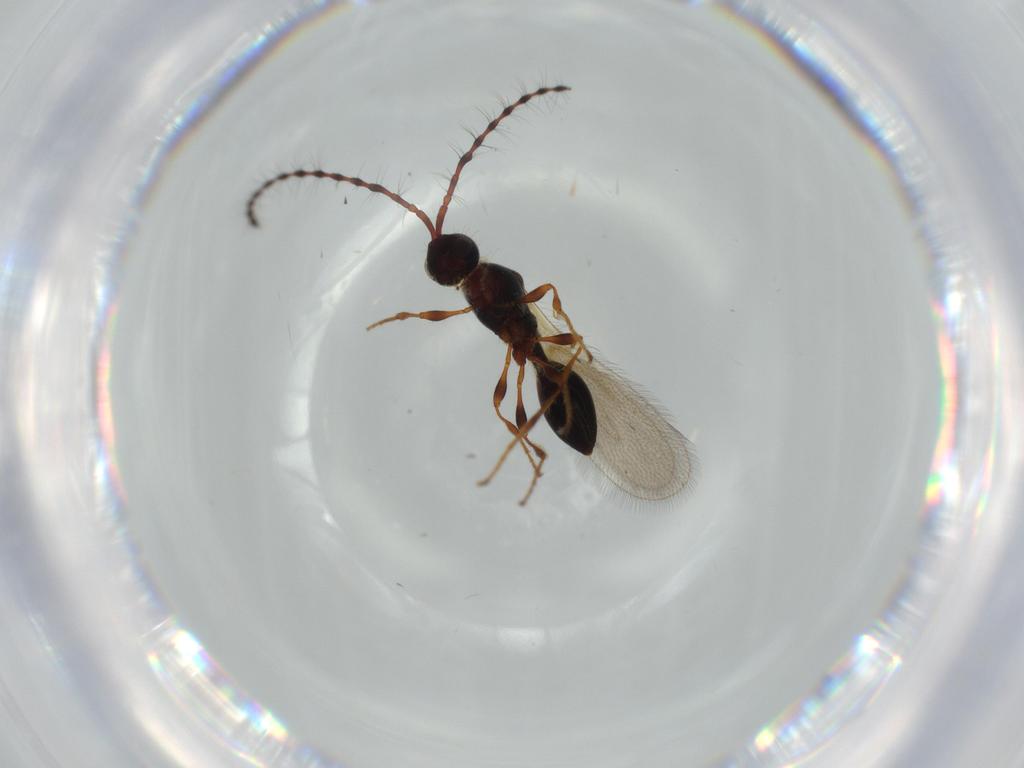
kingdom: Animalia
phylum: Arthropoda
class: Insecta
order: Hymenoptera
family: Diapriidae
